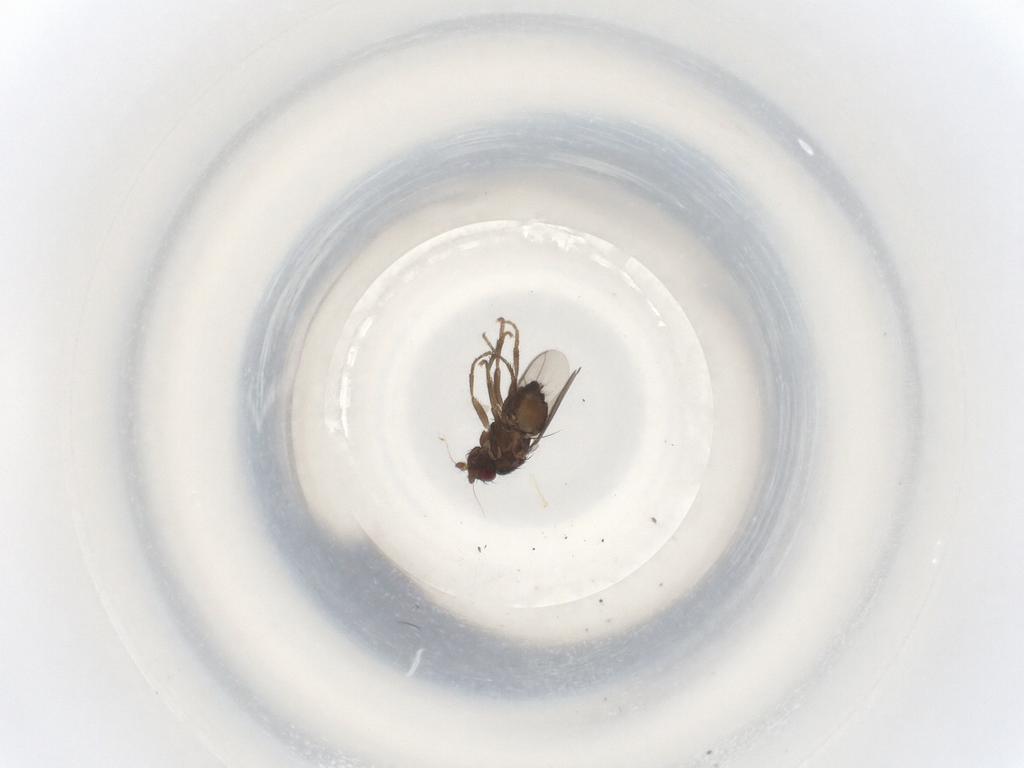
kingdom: Animalia
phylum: Arthropoda
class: Insecta
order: Diptera
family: Sphaeroceridae
